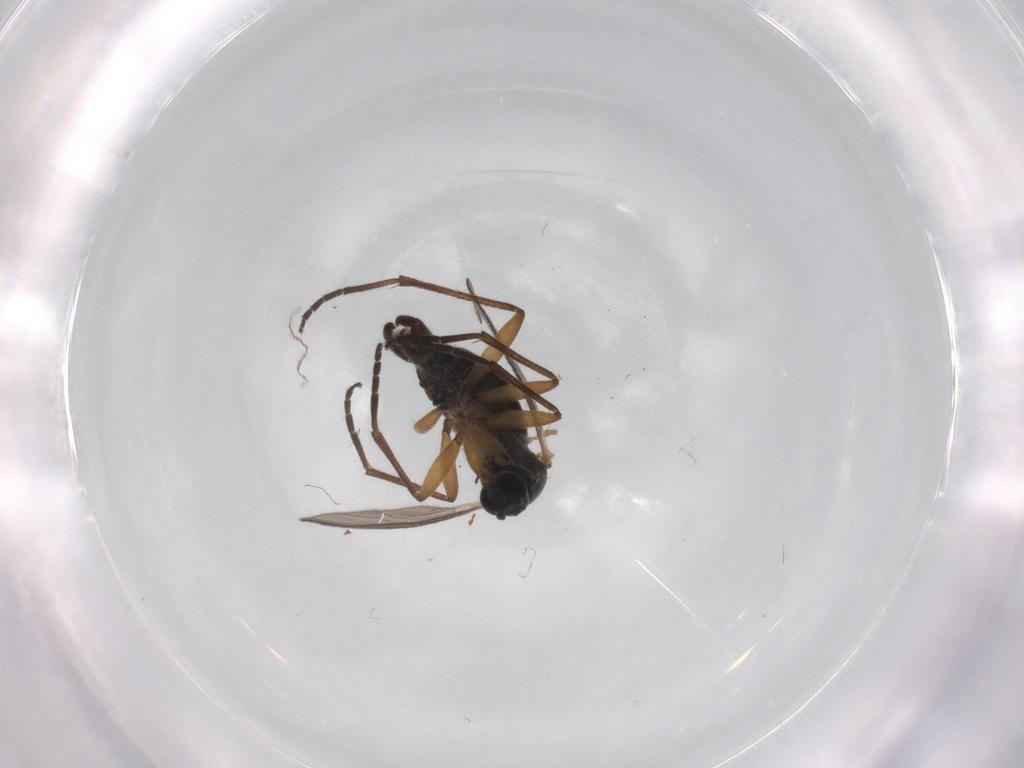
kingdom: Animalia
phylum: Arthropoda
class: Insecta
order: Diptera
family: Sciaridae
